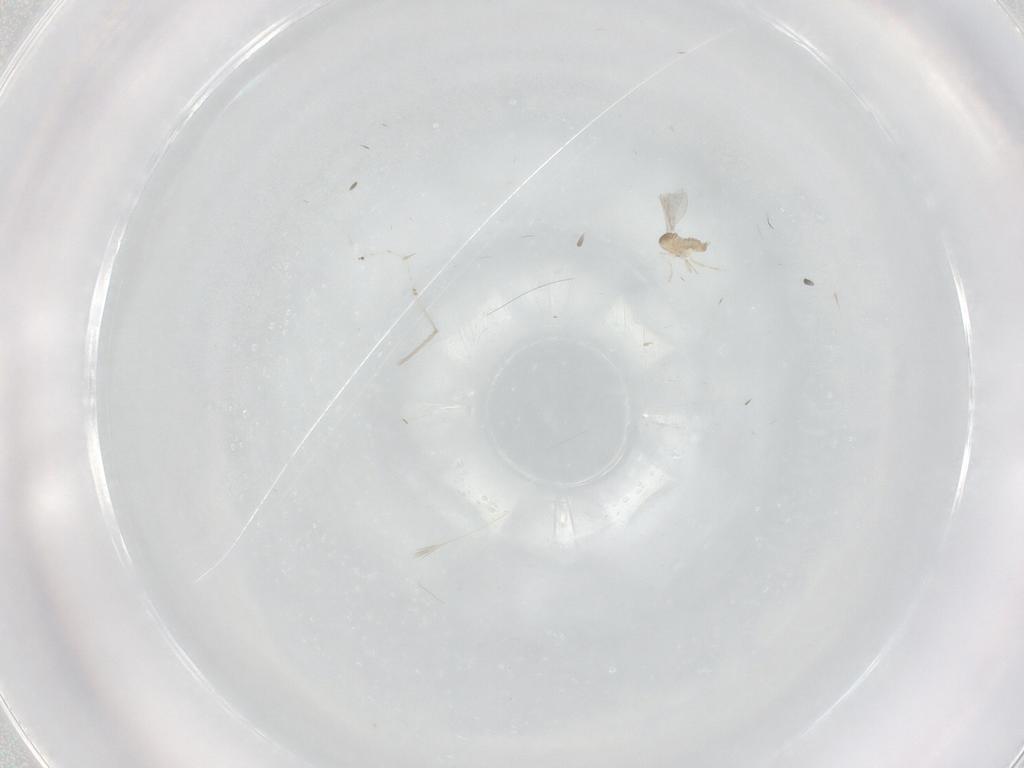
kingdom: Animalia
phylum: Arthropoda
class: Insecta
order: Diptera
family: Cecidomyiidae
